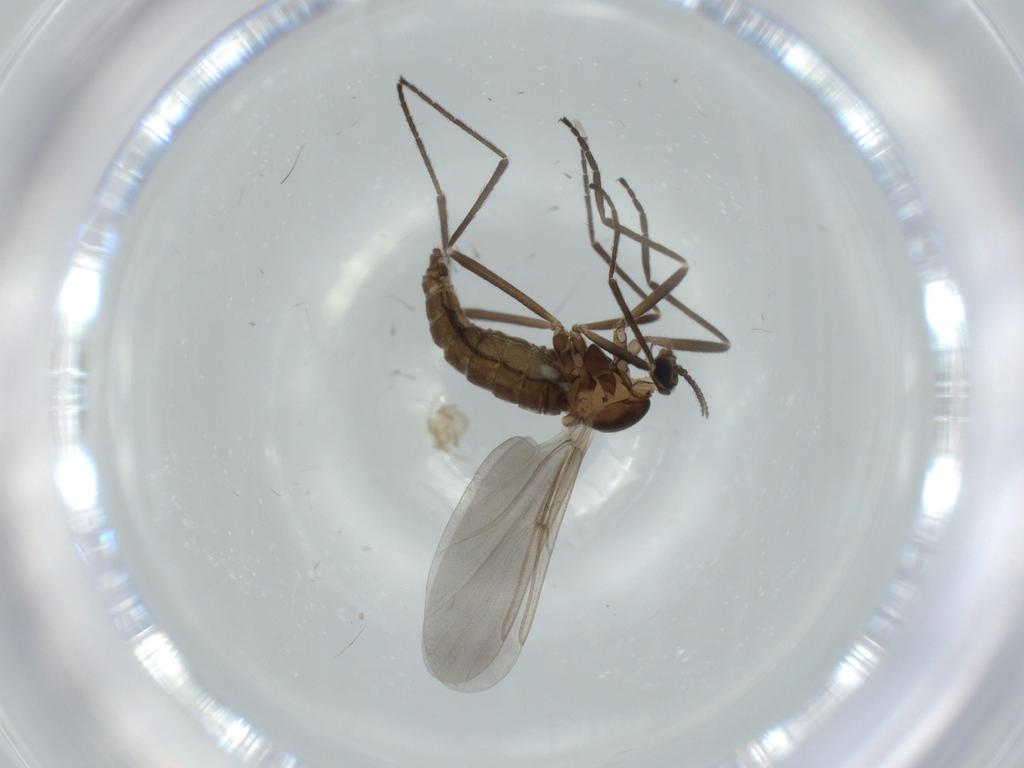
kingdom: Animalia
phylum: Arthropoda
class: Insecta
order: Diptera
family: Cecidomyiidae
